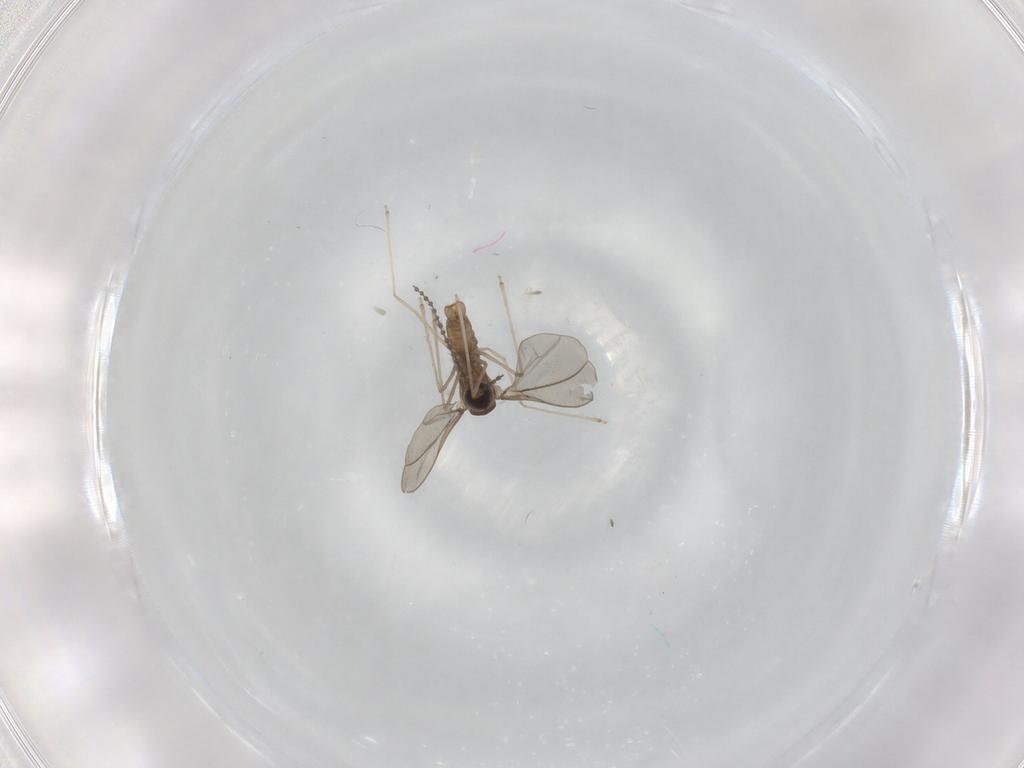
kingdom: Animalia
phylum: Arthropoda
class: Insecta
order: Diptera
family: Cecidomyiidae
